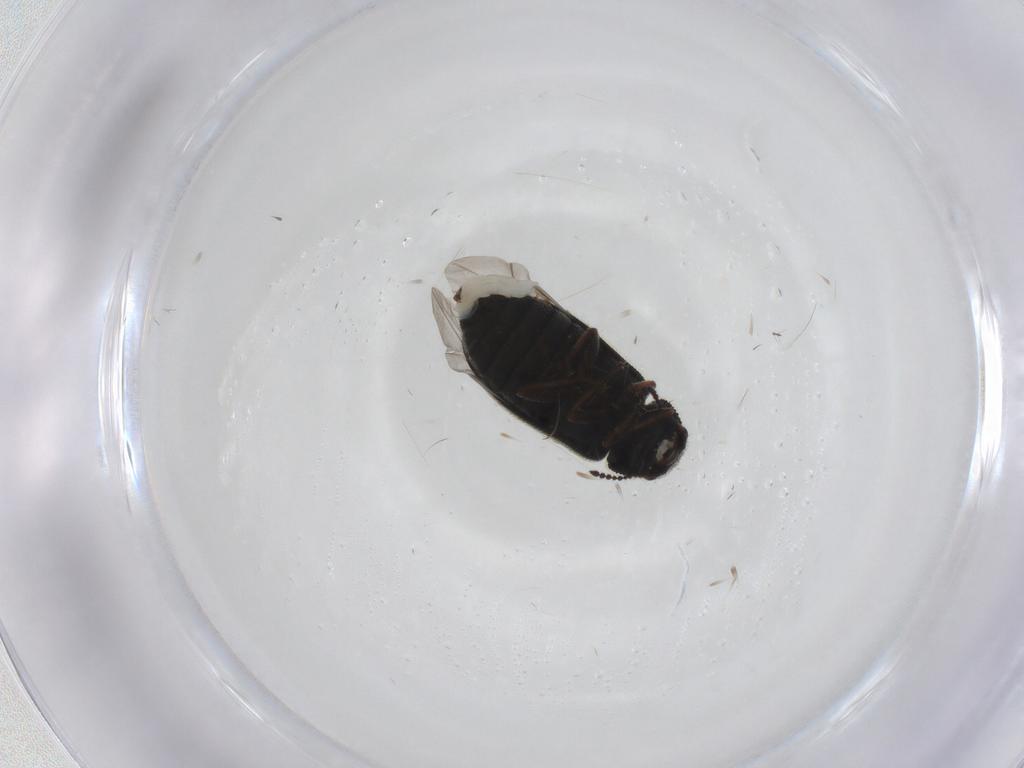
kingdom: Animalia
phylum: Arthropoda
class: Insecta
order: Coleoptera
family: Melyridae
